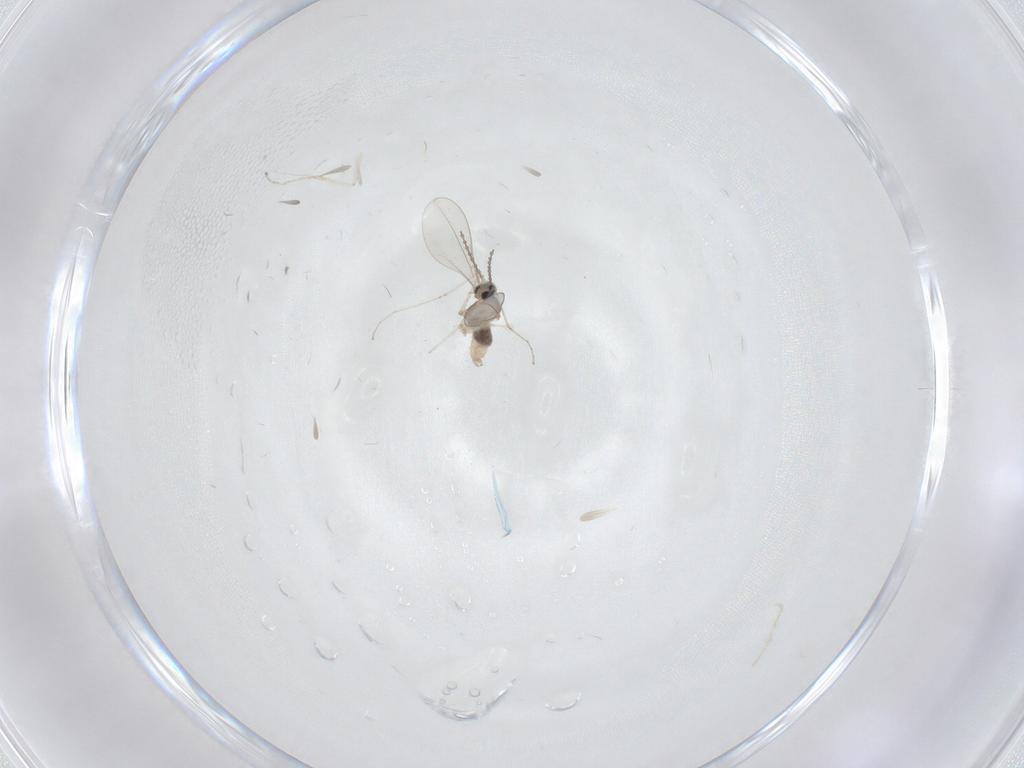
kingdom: Animalia
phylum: Arthropoda
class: Insecta
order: Diptera
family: Cecidomyiidae
